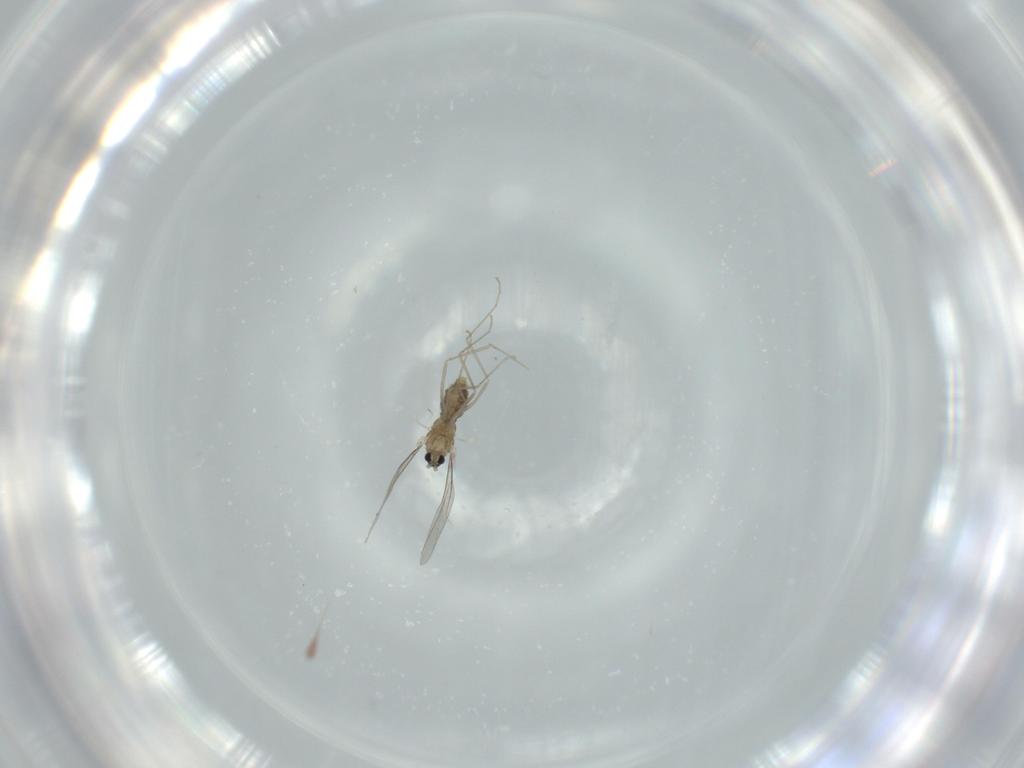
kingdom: Animalia
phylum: Arthropoda
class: Insecta
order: Diptera
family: Cecidomyiidae
